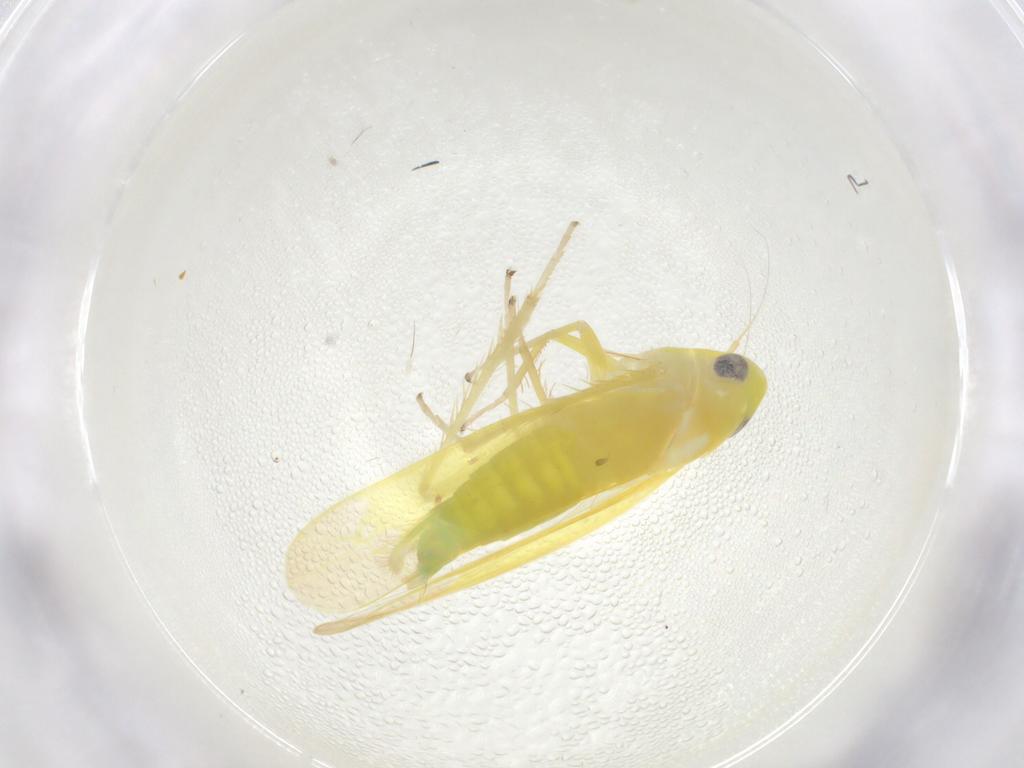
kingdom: Animalia
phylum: Arthropoda
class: Insecta
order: Hemiptera
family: Cicadellidae
